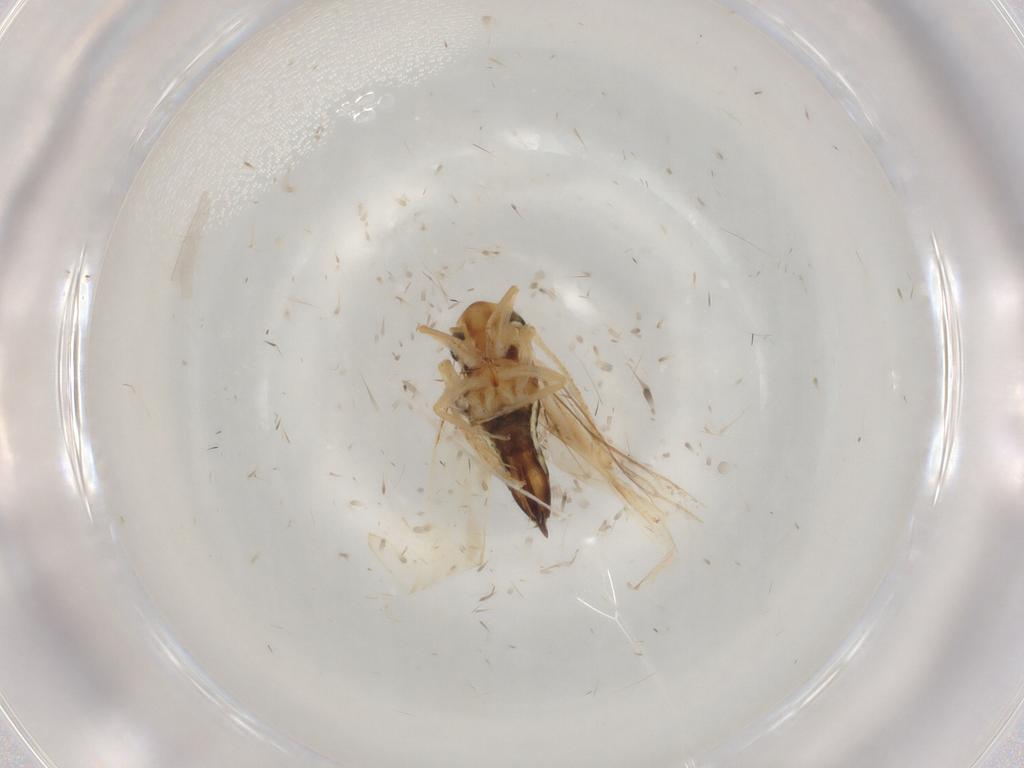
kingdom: Animalia
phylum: Arthropoda
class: Insecta
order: Hemiptera
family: Cicadellidae
